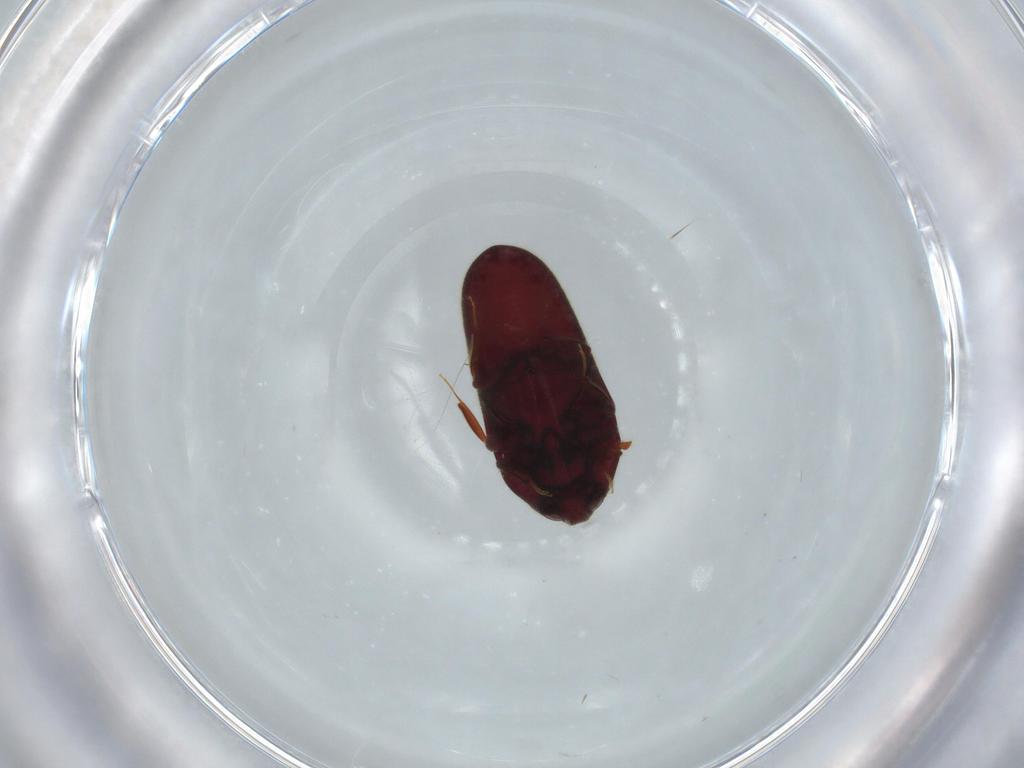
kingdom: Animalia
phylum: Arthropoda
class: Insecta
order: Coleoptera
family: Throscidae
